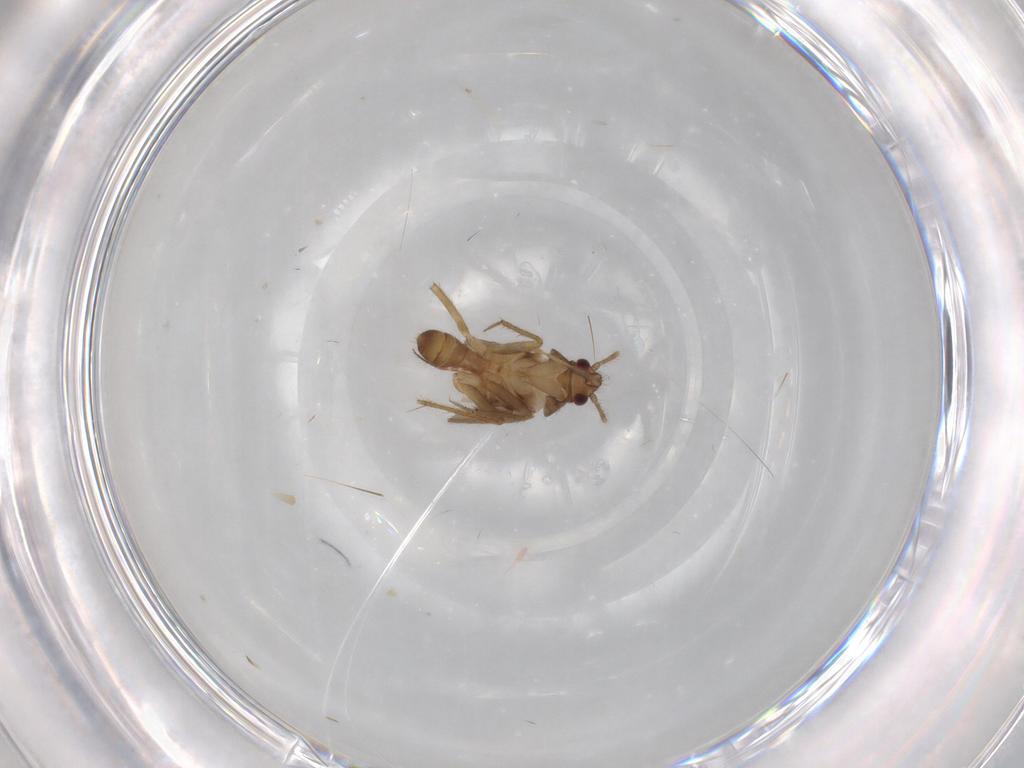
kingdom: Animalia
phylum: Arthropoda
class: Insecta
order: Hemiptera
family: Ceratocombidae
